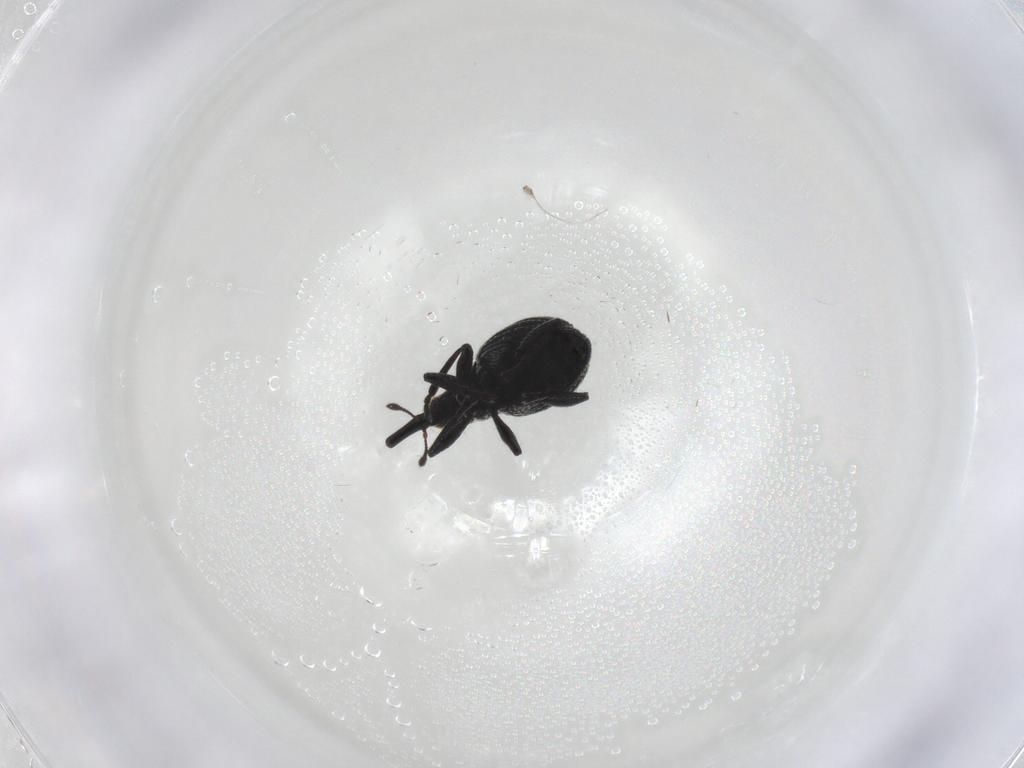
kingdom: Animalia
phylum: Arthropoda
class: Insecta
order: Coleoptera
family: Brentidae
